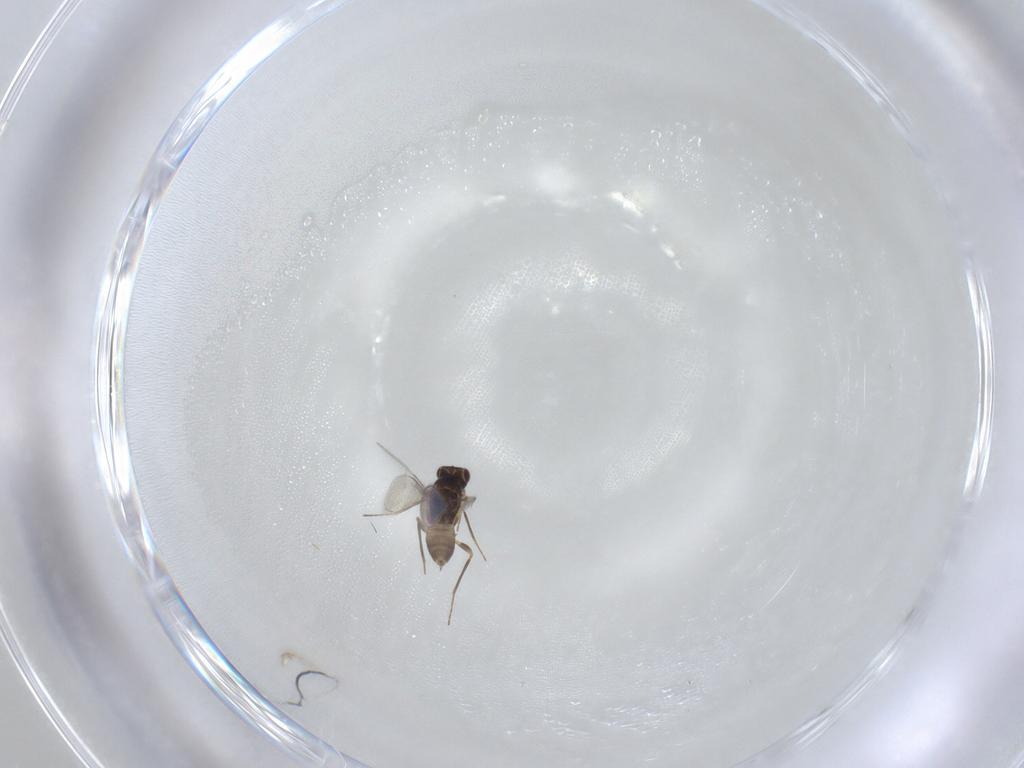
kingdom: Animalia
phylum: Arthropoda
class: Insecta
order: Hymenoptera
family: Mymaridae
